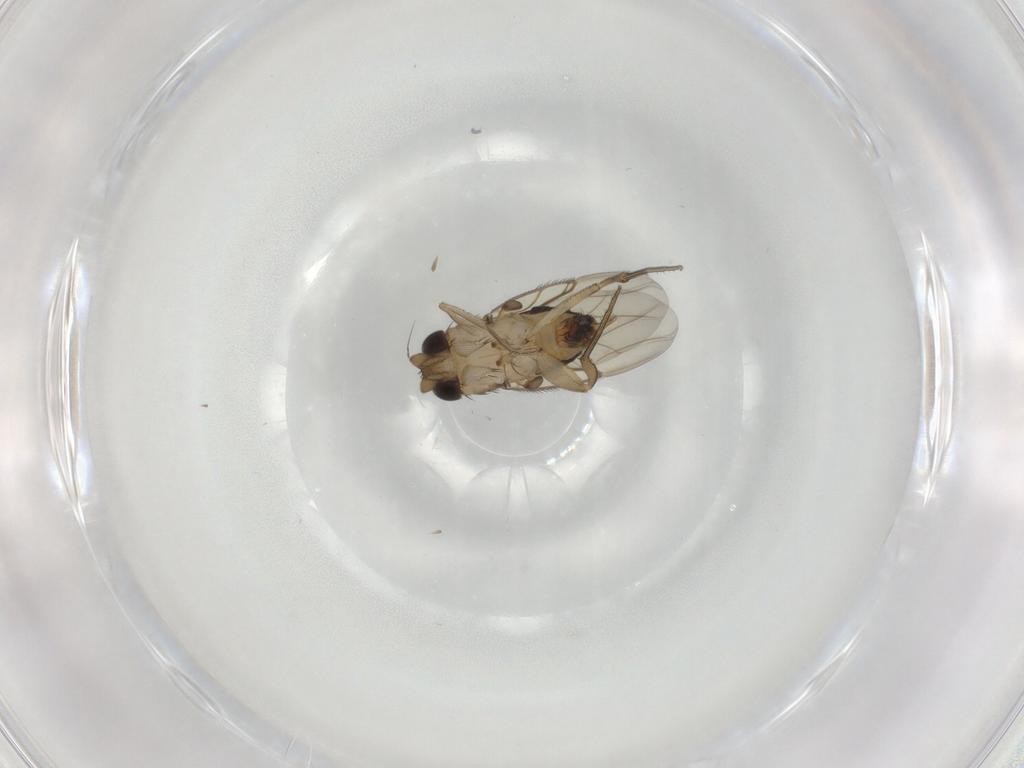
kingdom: Animalia
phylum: Arthropoda
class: Insecta
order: Diptera
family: Phoridae
